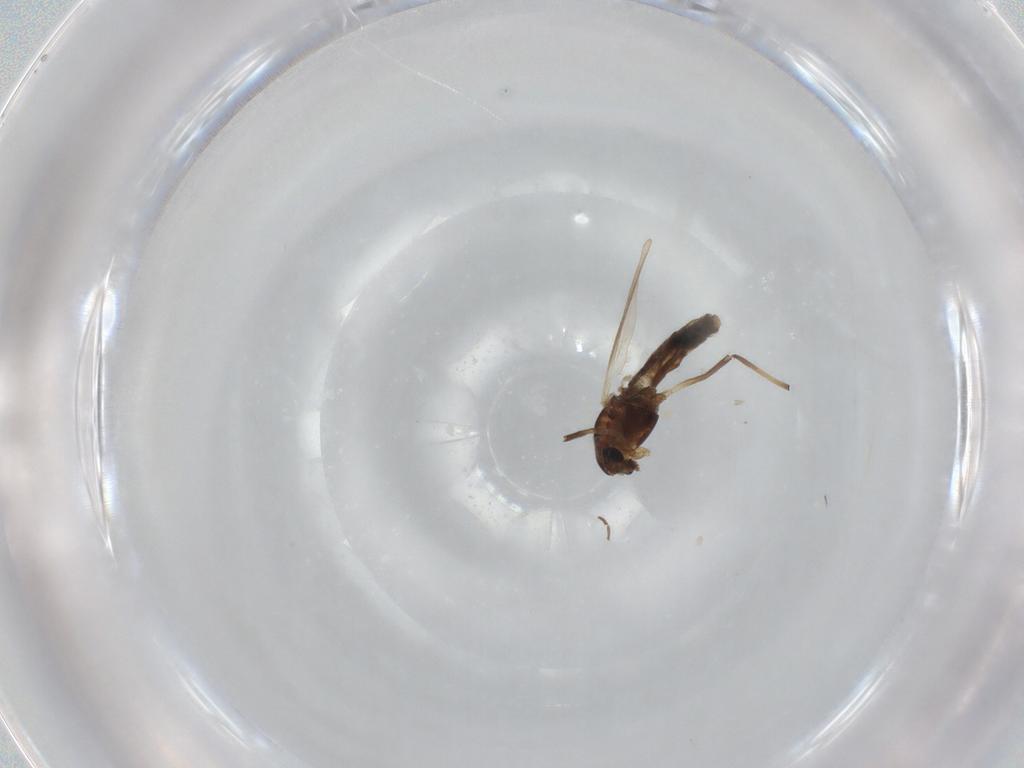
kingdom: Animalia
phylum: Arthropoda
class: Insecta
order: Diptera
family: Chironomidae
